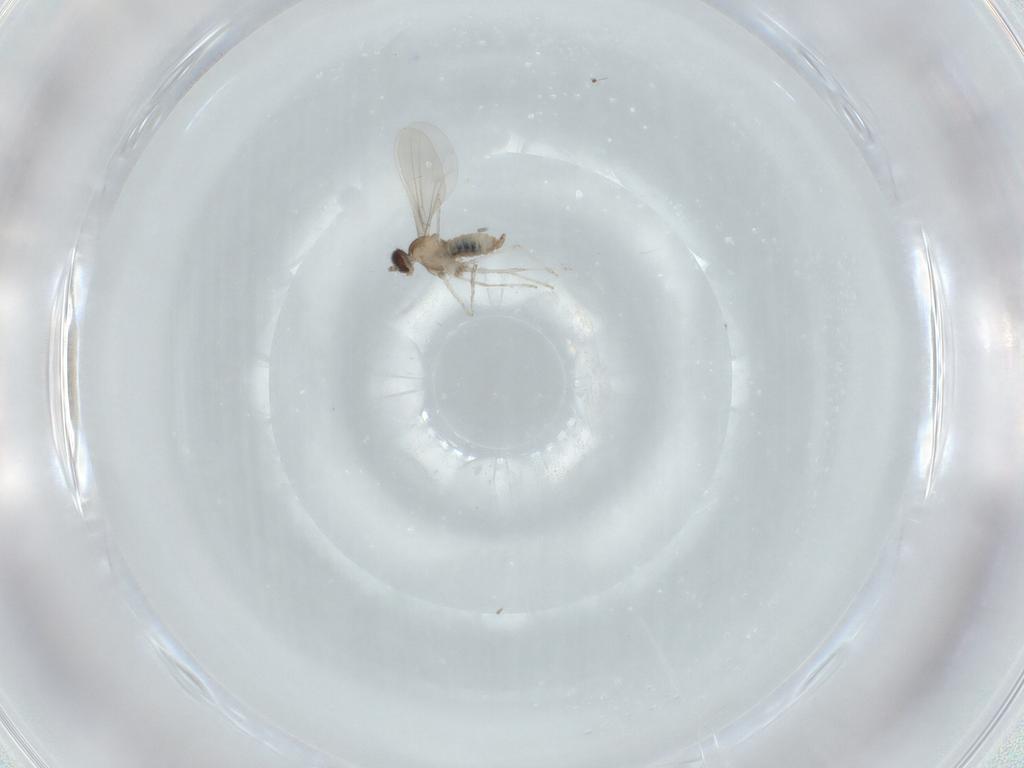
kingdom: Animalia
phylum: Arthropoda
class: Insecta
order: Diptera
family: Cecidomyiidae
